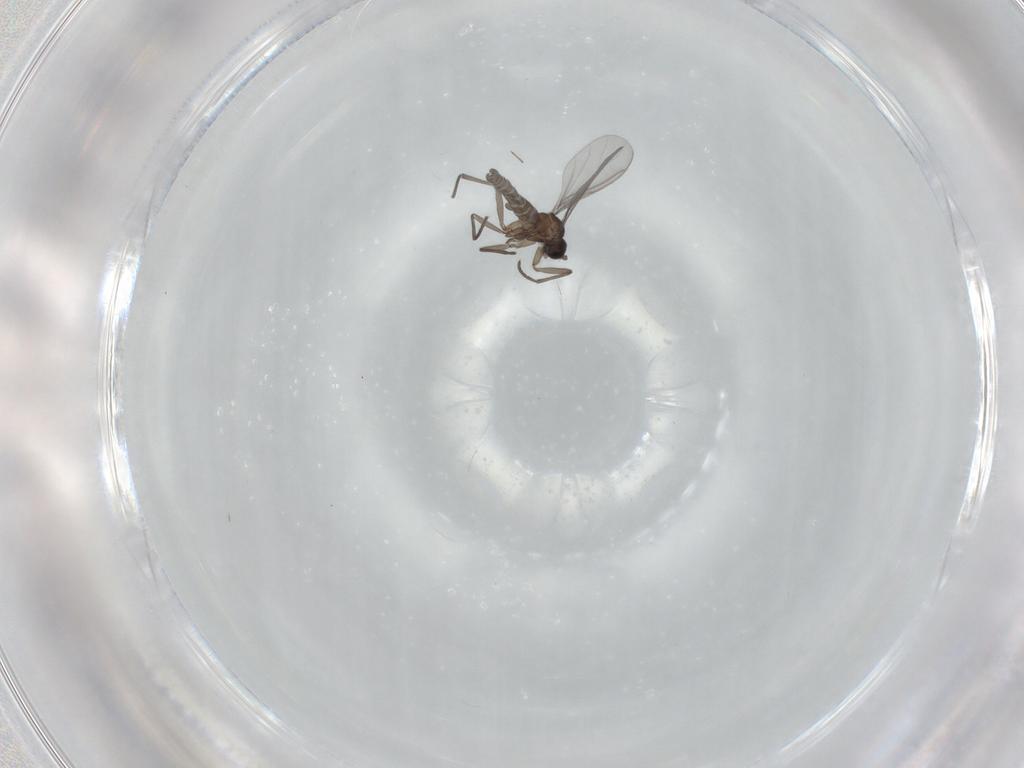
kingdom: Animalia
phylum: Arthropoda
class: Insecta
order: Diptera
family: Sciaridae
